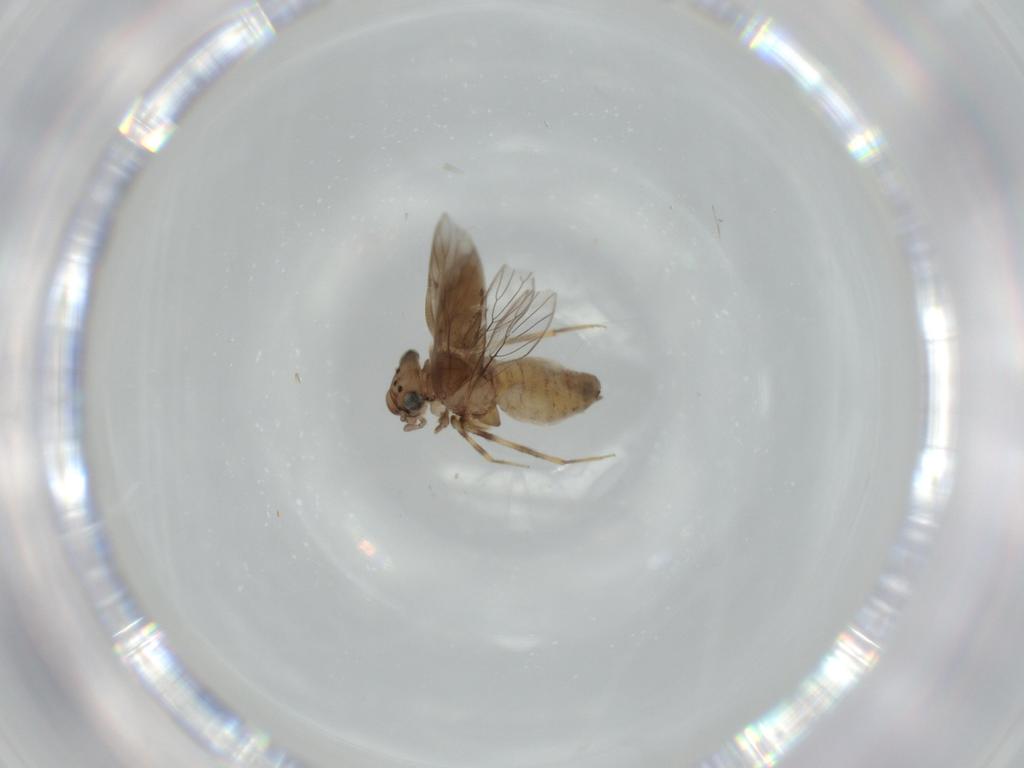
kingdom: Animalia
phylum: Arthropoda
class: Insecta
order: Psocodea
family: Lepidopsocidae
